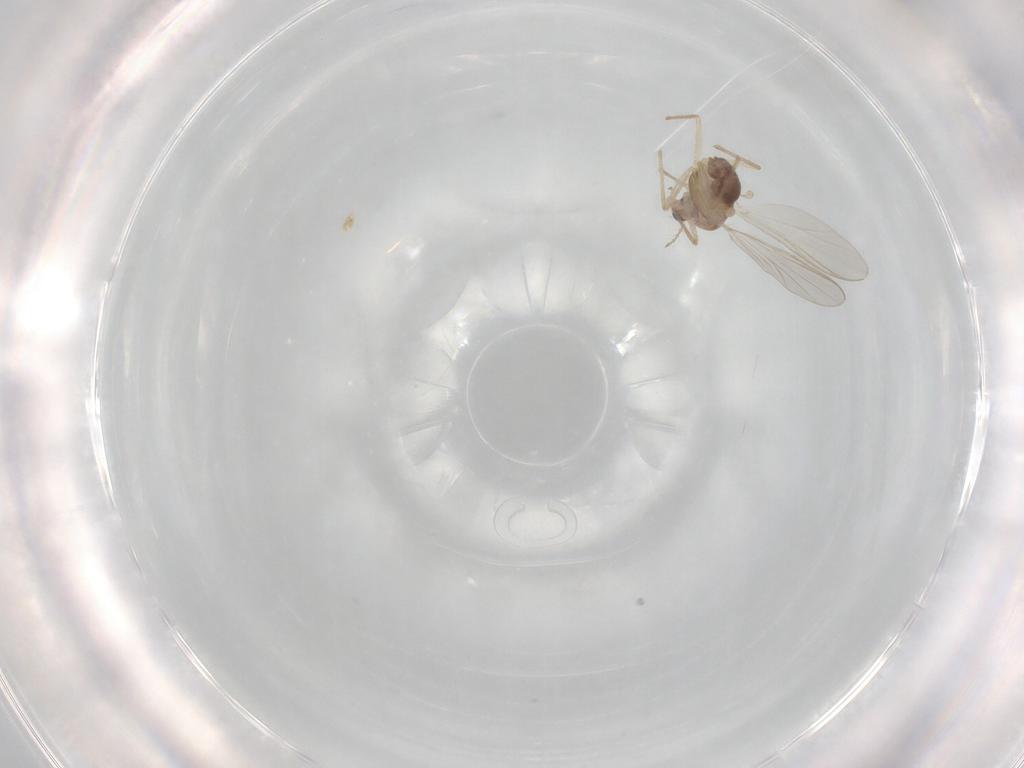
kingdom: Animalia
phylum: Arthropoda
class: Insecta
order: Diptera
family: Chironomidae
